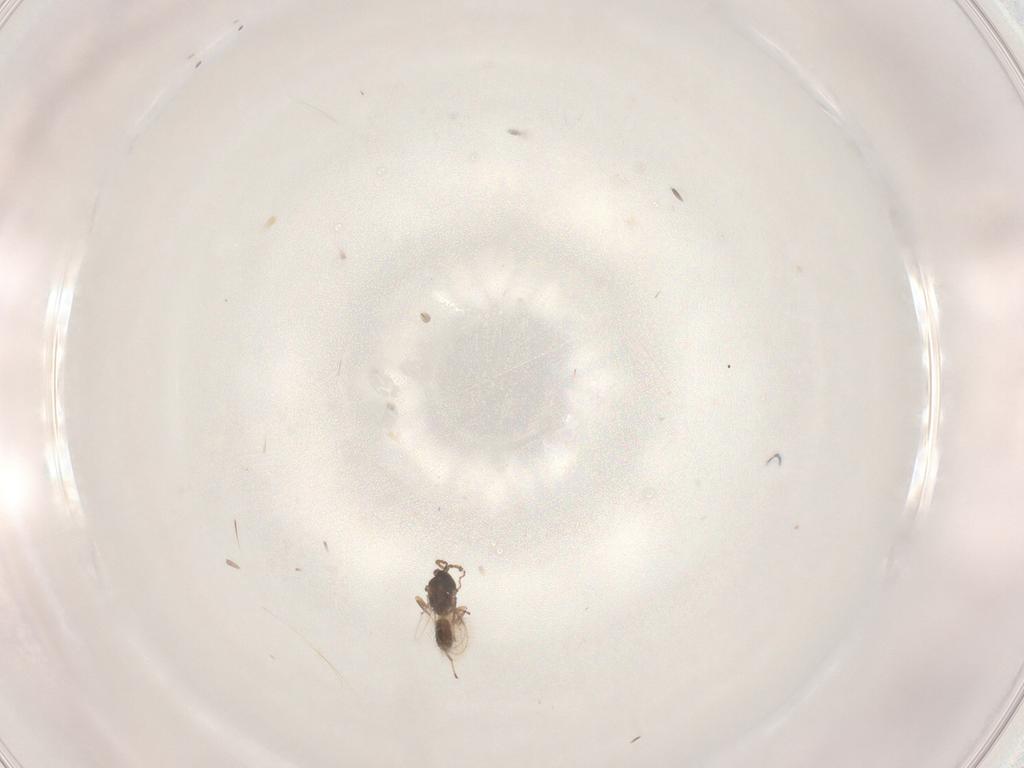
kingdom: Animalia
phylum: Arthropoda
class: Insecta
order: Hymenoptera
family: Eulophidae
